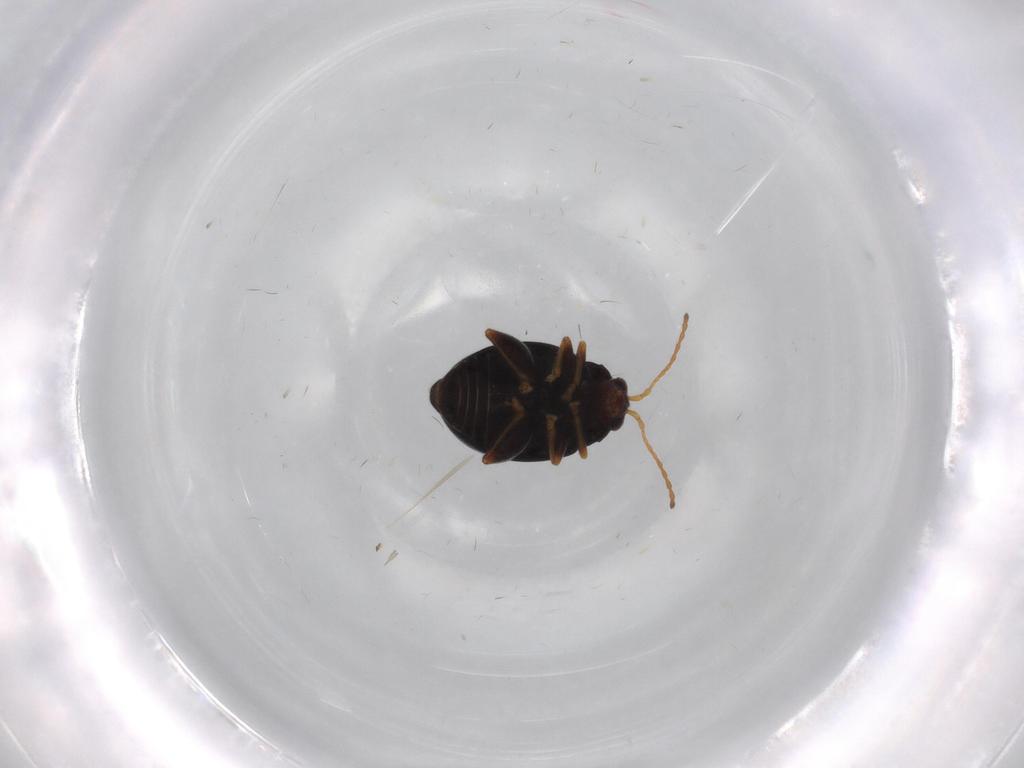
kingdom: Animalia
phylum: Arthropoda
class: Insecta
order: Coleoptera
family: Chrysomelidae
